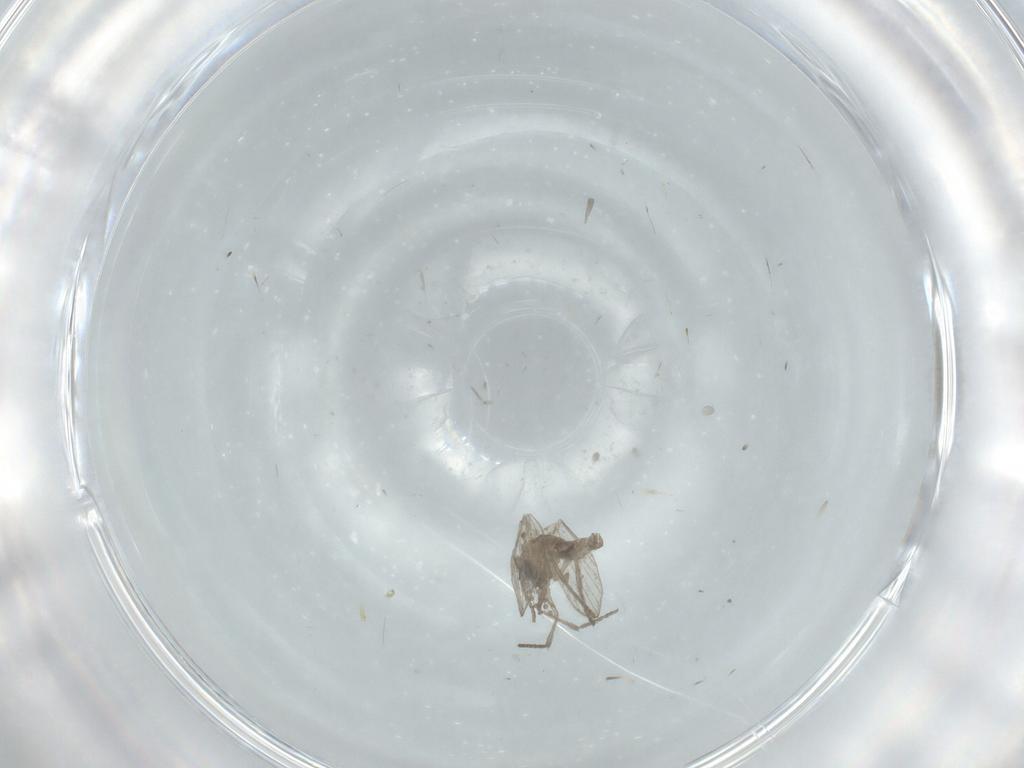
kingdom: Animalia
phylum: Arthropoda
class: Insecta
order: Diptera
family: Psychodidae
